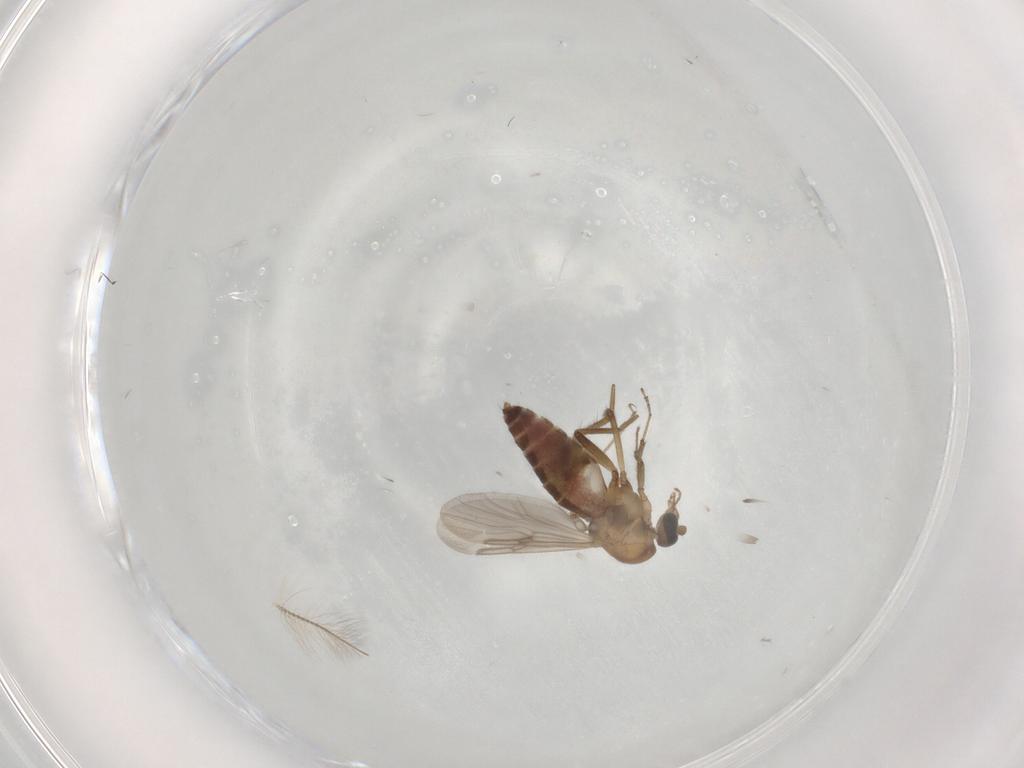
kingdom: Animalia
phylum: Arthropoda
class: Insecta
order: Diptera
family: Ceratopogonidae
